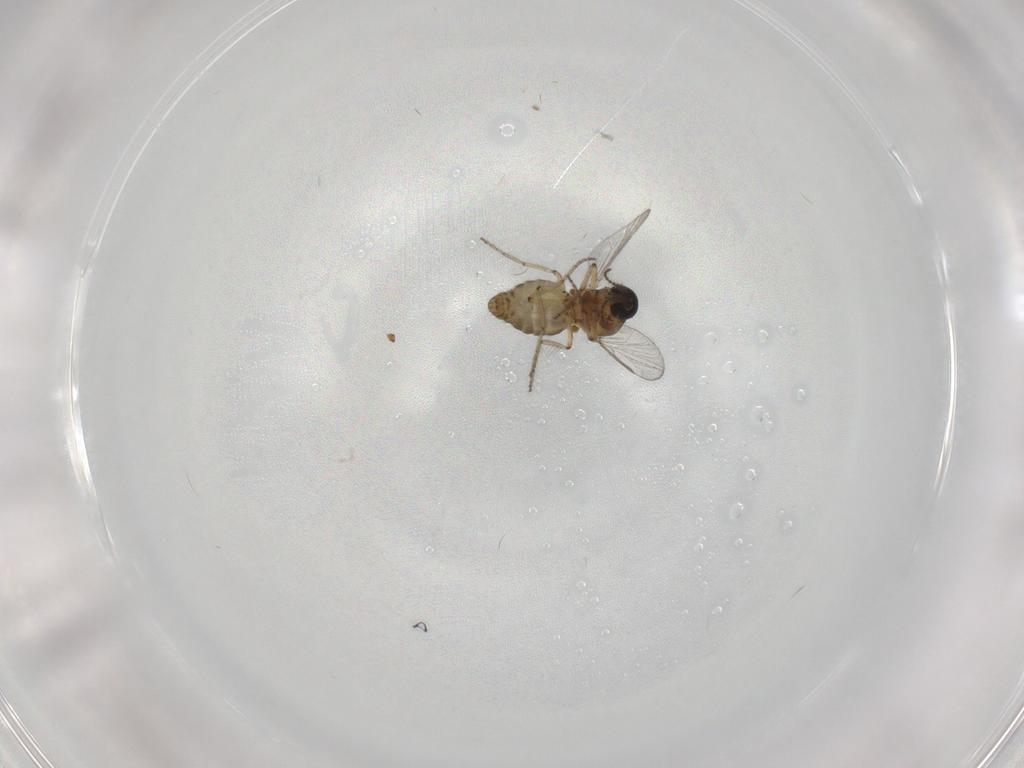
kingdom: Animalia
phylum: Arthropoda
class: Insecta
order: Diptera
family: Ceratopogonidae
